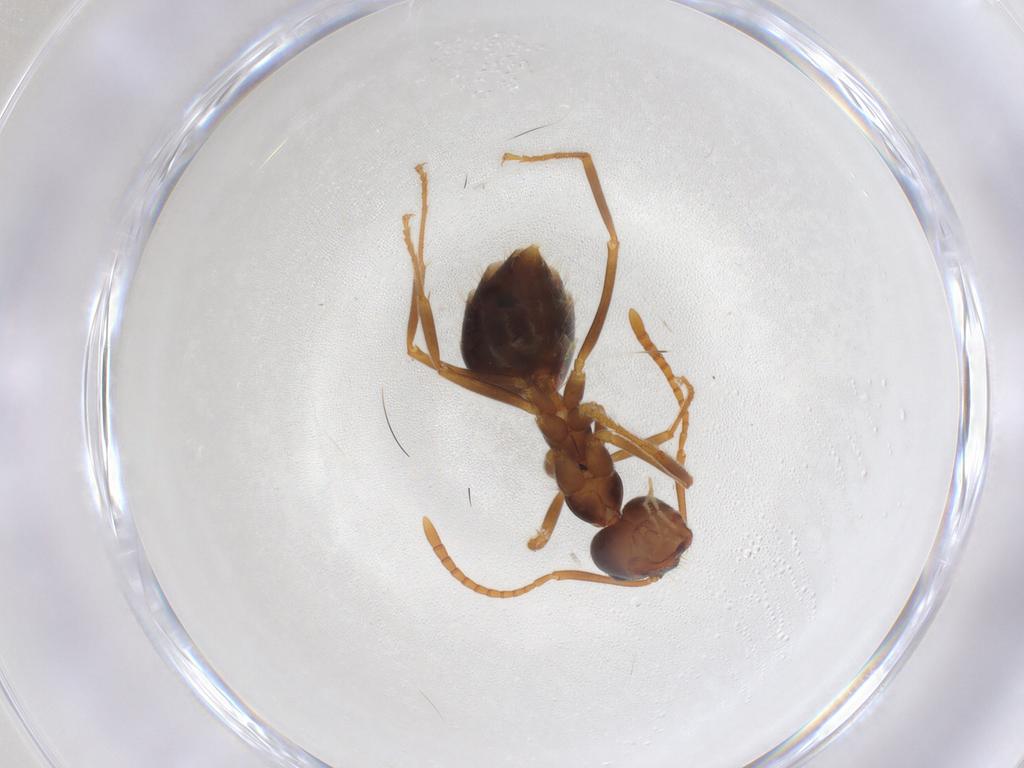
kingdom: Animalia
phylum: Arthropoda
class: Insecta
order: Hymenoptera
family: Formicidae
